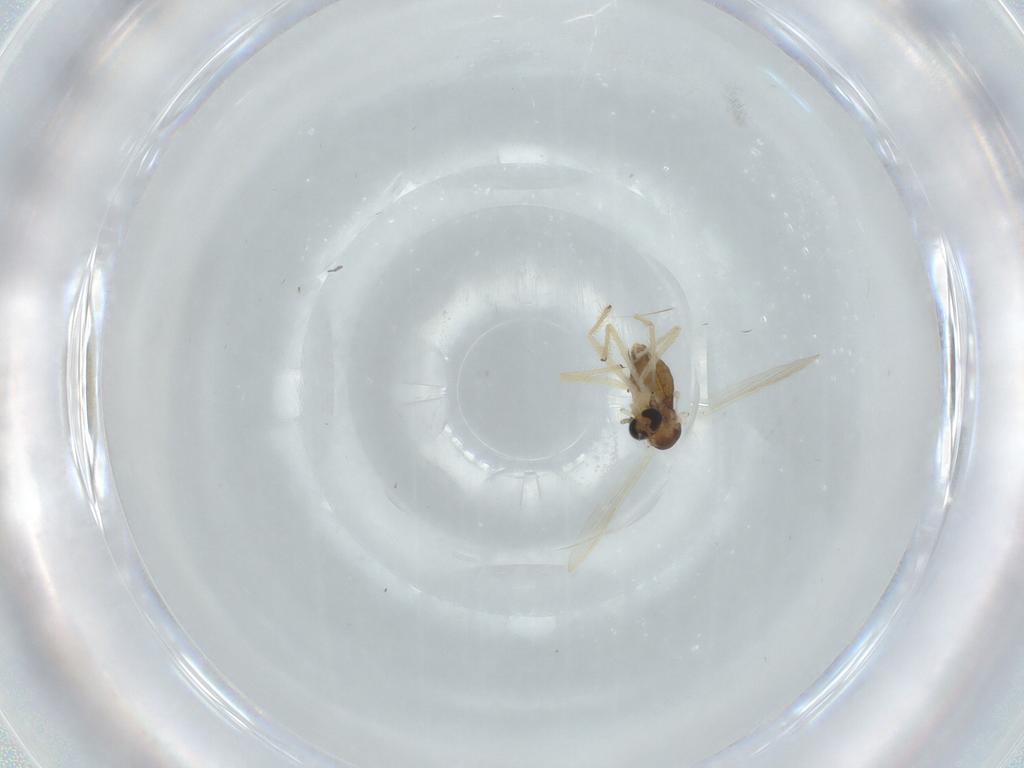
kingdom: Animalia
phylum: Arthropoda
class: Insecta
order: Diptera
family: Chironomidae
